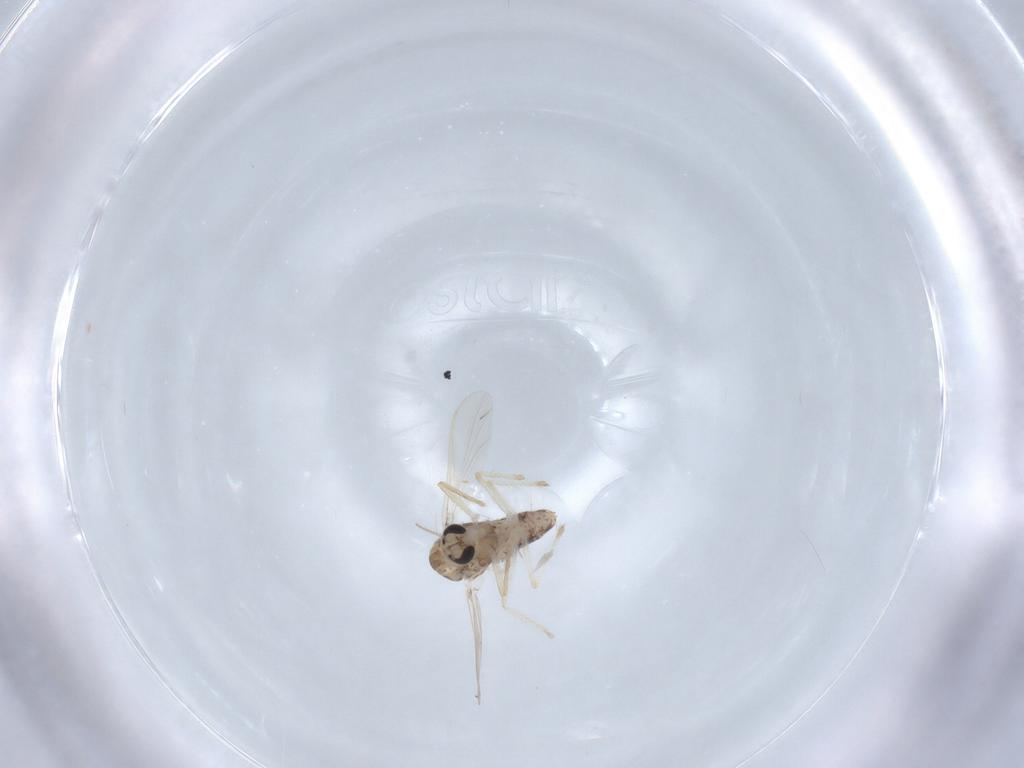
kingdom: Animalia
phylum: Arthropoda
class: Insecta
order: Diptera
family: Chironomidae
